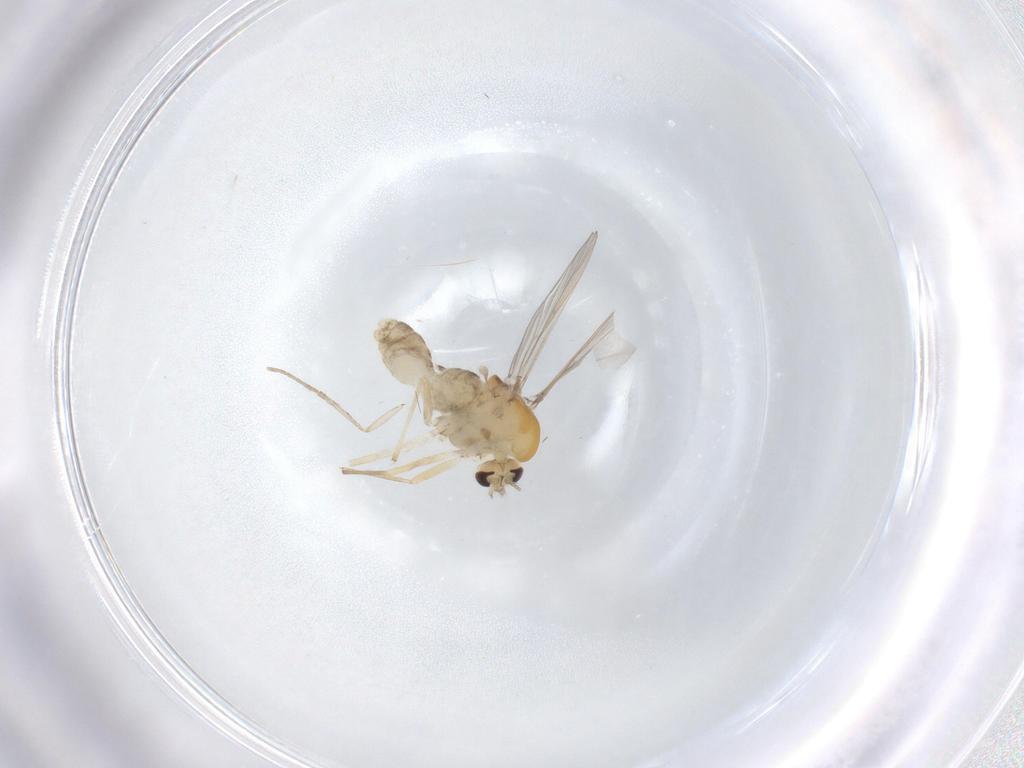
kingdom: Animalia
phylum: Arthropoda
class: Insecta
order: Diptera
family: Chironomidae
